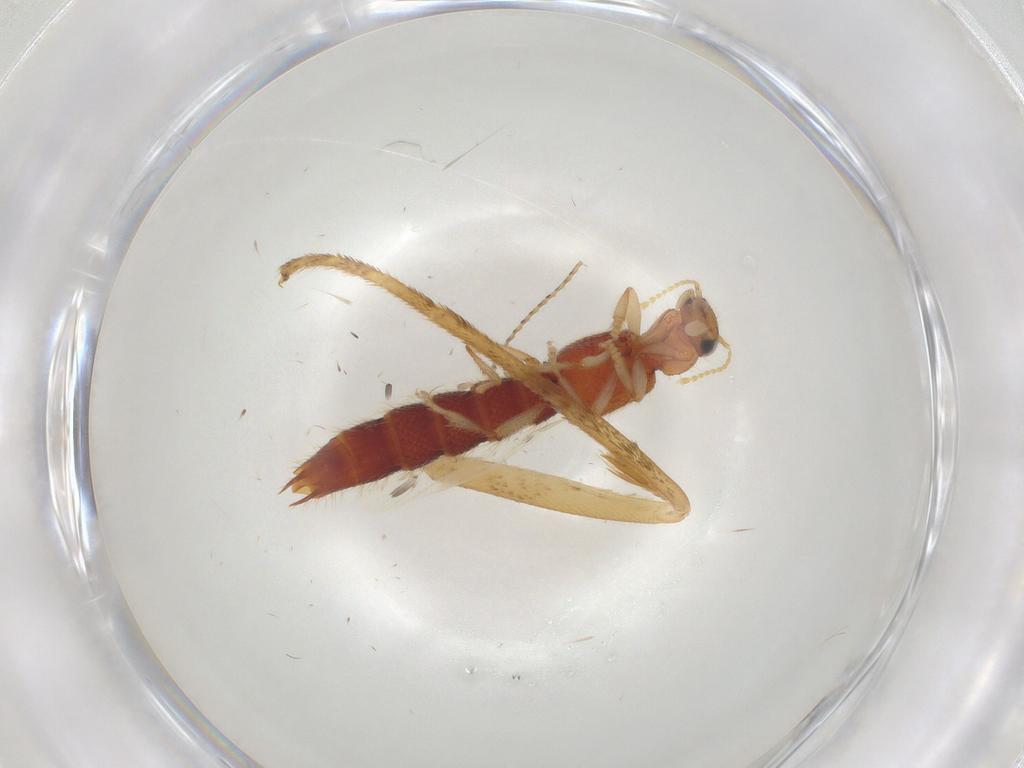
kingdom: Animalia
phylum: Arthropoda
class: Insecta
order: Coleoptera
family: Staphylinidae
